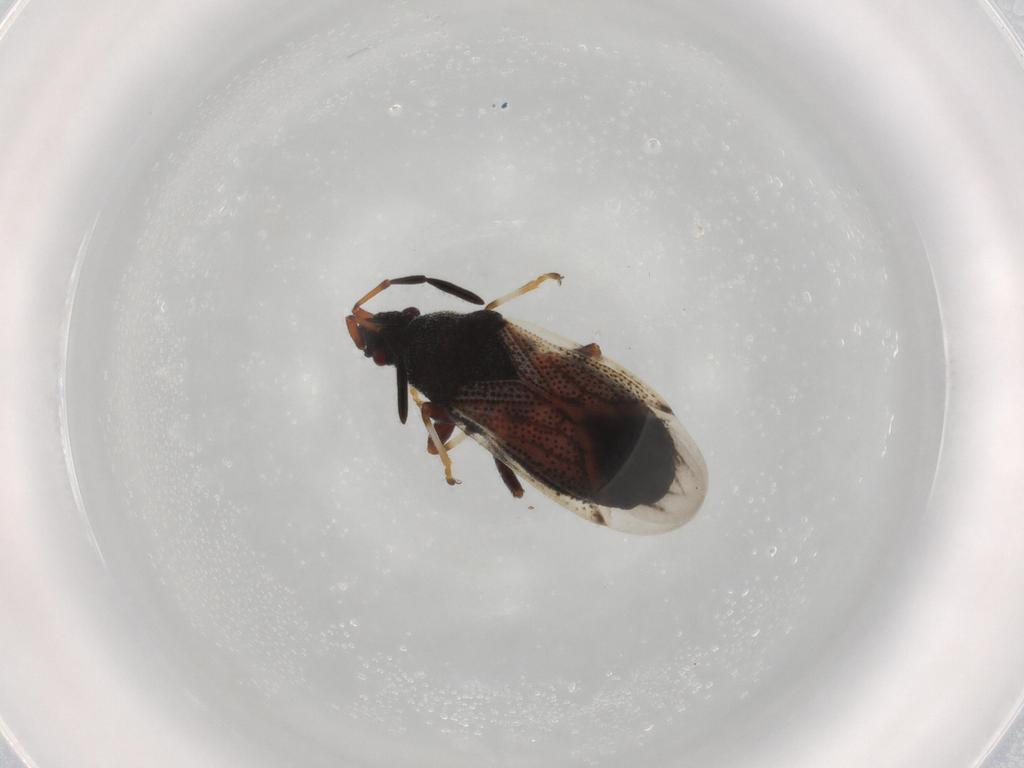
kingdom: Animalia
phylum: Arthropoda
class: Insecta
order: Hemiptera
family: Oxycarenidae
